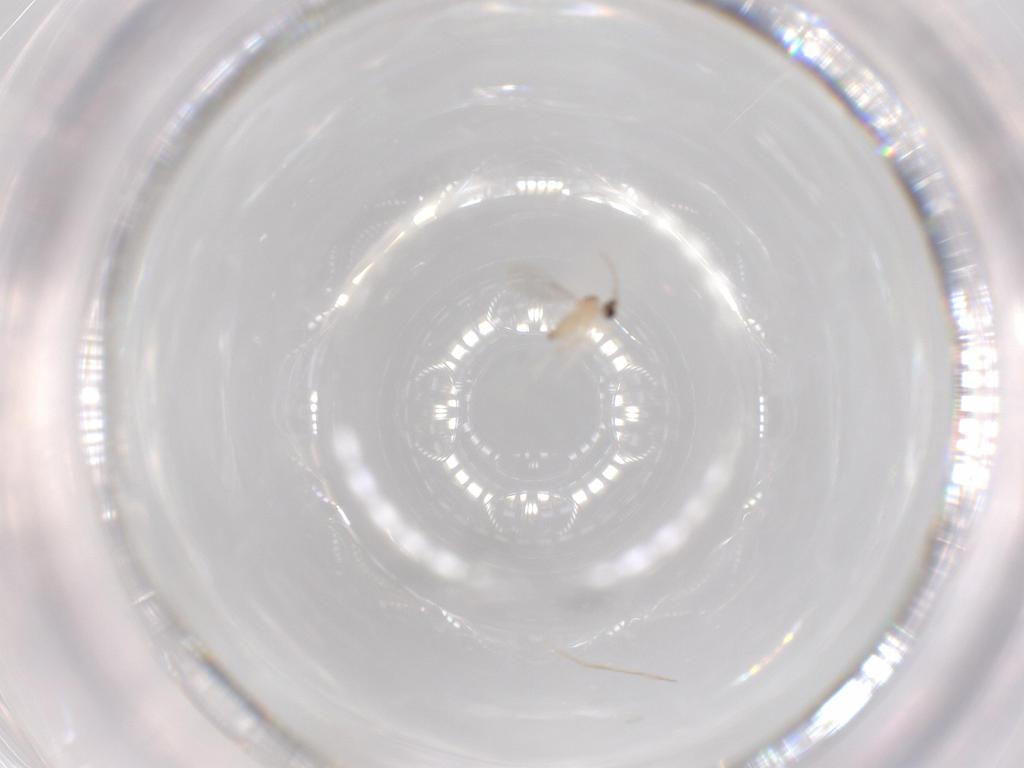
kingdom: Animalia
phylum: Arthropoda
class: Insecta
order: Diptera
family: Cecidomyiidae
